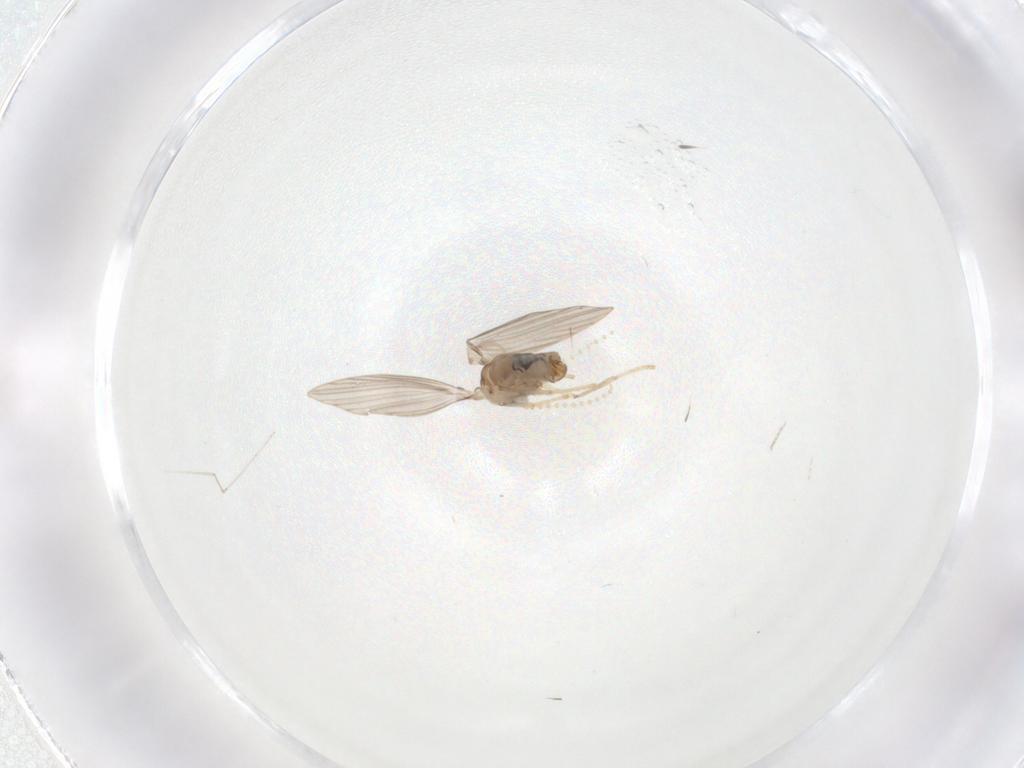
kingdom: Animalia
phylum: Arthropoda
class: Insecta
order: Diptera
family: Psychodidae
